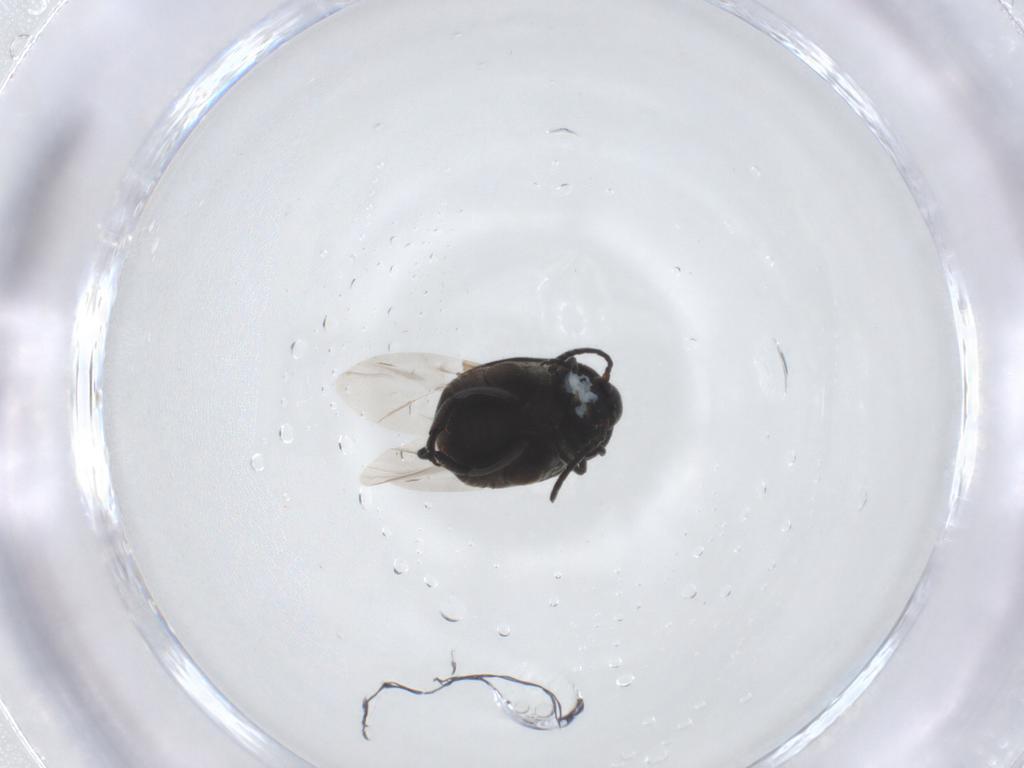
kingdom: Animalia
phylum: Arthropoda
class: Insecta
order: Coleoptera
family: Chrysomelidae
